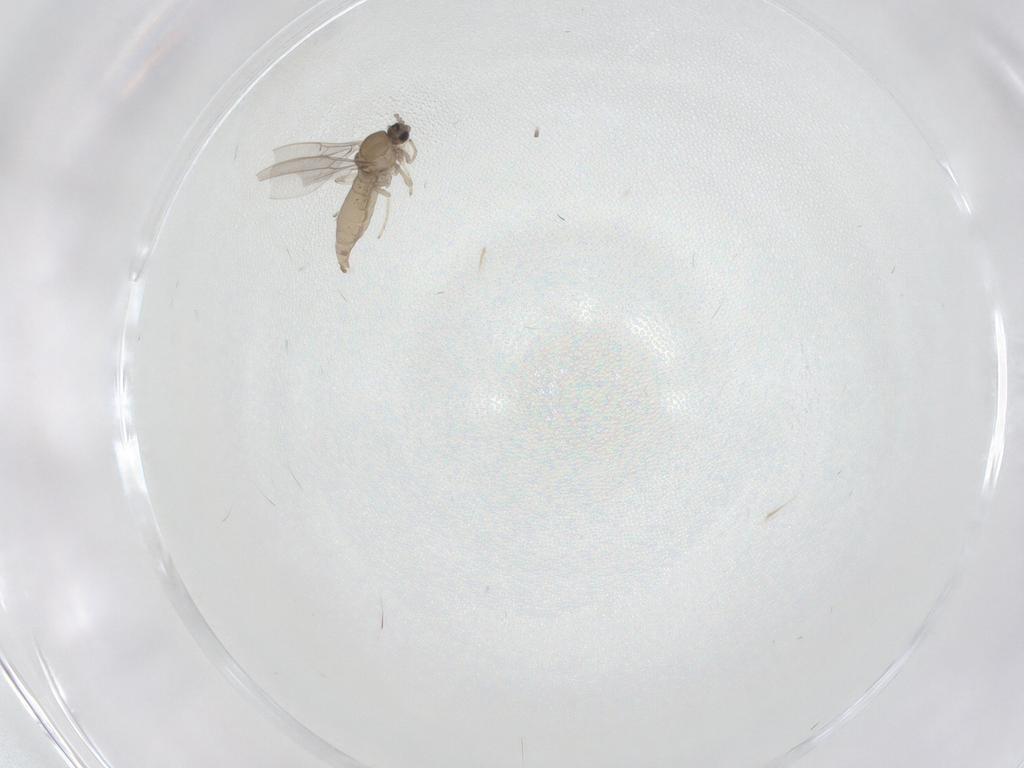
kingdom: Animalia
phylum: Arthropoda
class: Insecta
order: Diptera
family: Cecidomyiidae
